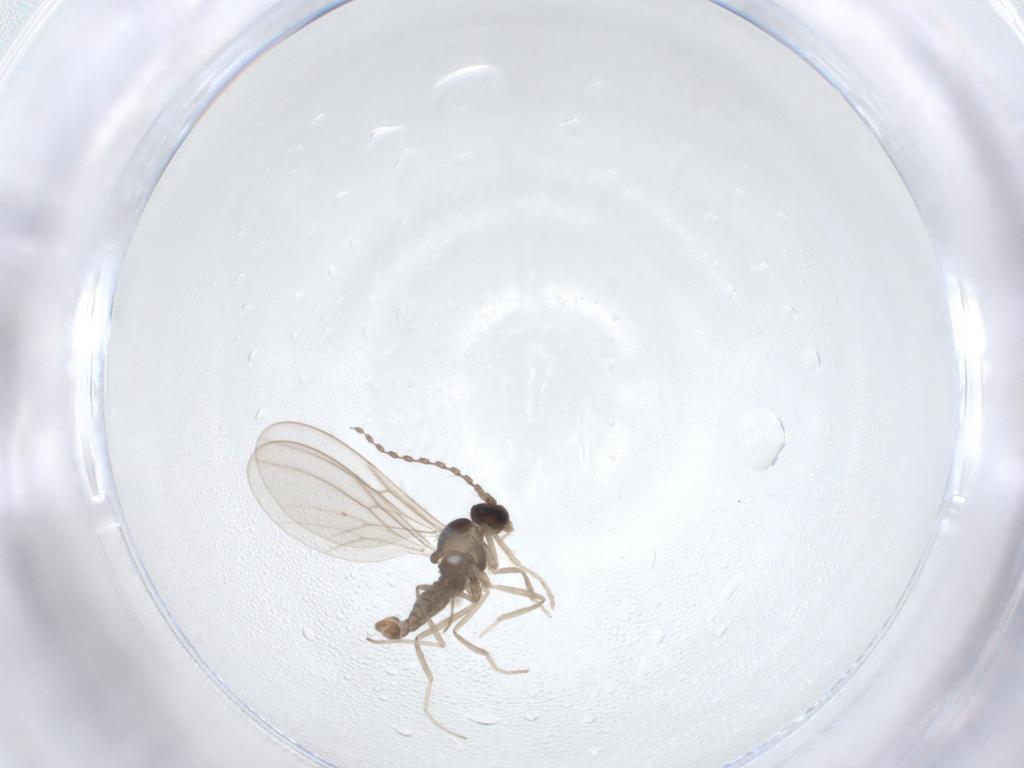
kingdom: Animalia
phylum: Arthropoda
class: Insecta
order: Diptera
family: Cecidomyiidae
